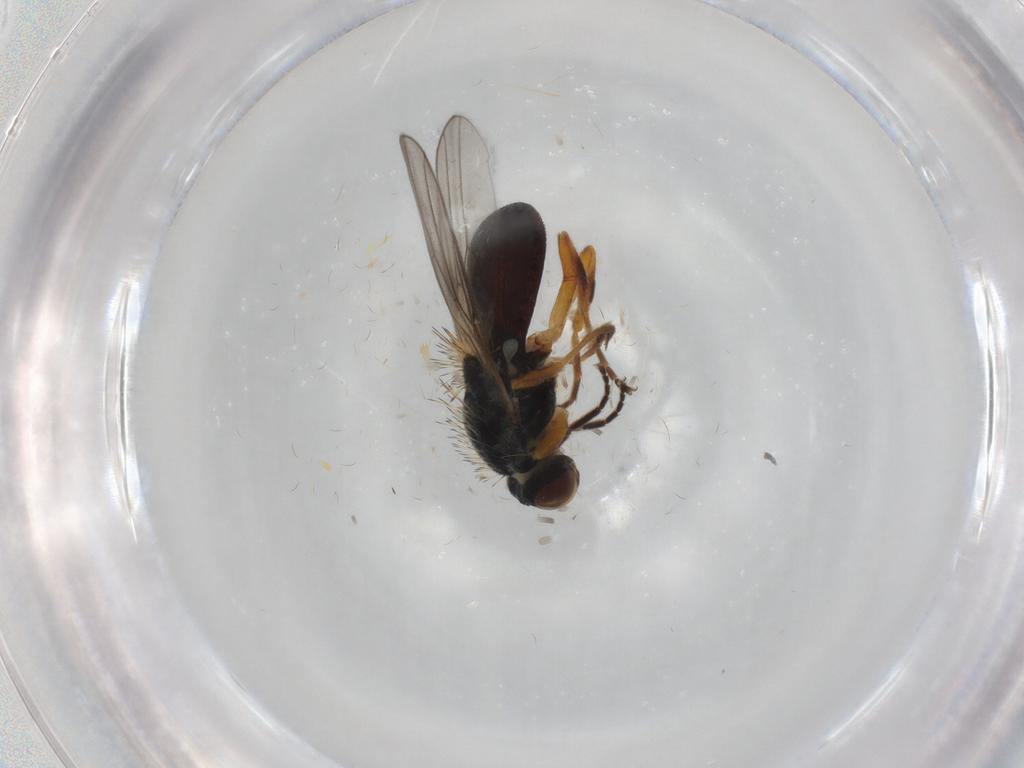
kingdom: Animalia
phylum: Arthropoda
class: Insecta
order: Diptera
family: Chloropidae
